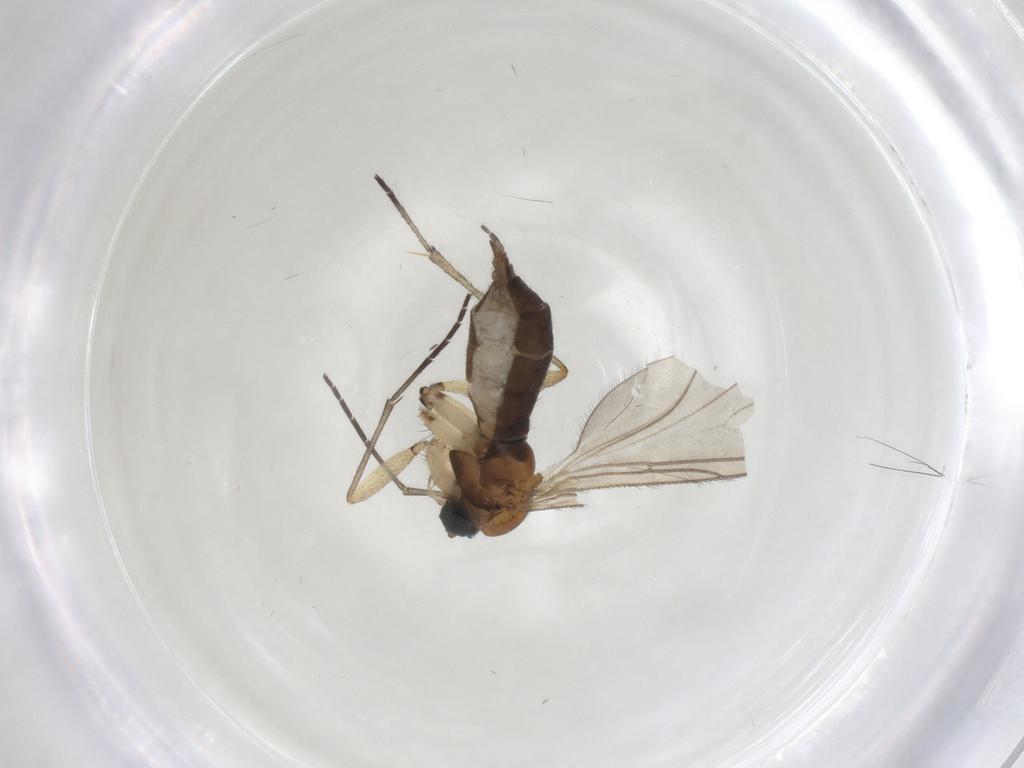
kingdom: Animalia
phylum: Arthropoda
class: Insecta
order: Diptera
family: Sciaridae
